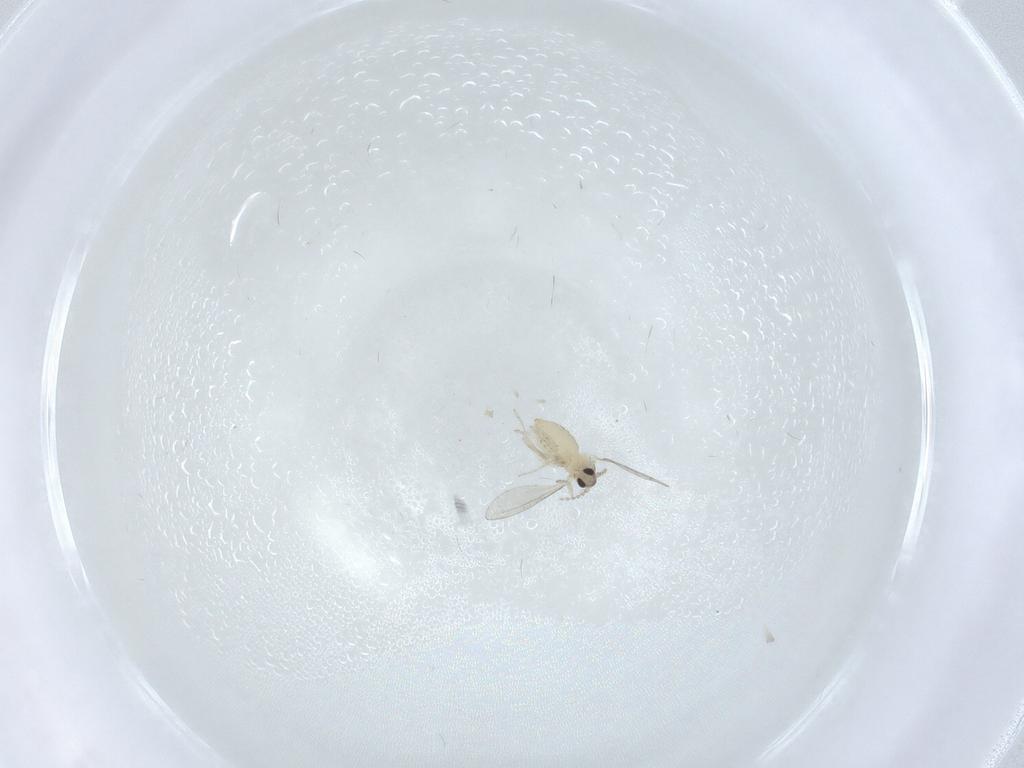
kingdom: Animalia
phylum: Arthropoda
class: Insecta
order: Diptera
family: Cecidomyiidae
